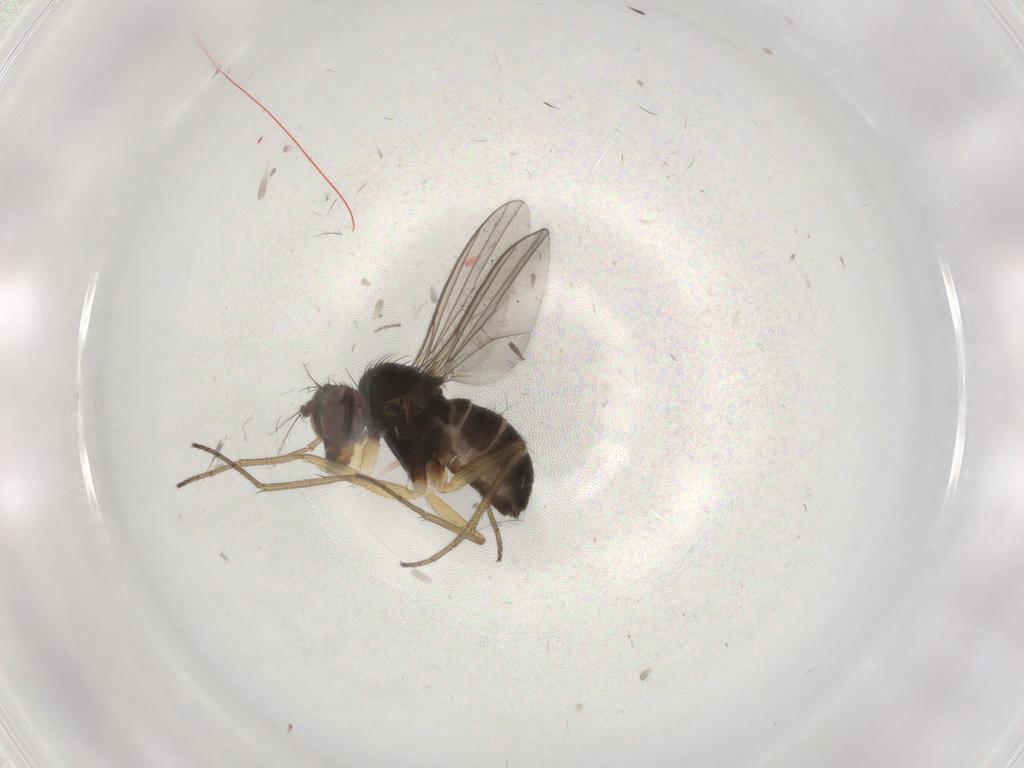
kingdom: Animalia
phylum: Arthropoda
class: Insecta
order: Diptera
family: Dolichopodidae
